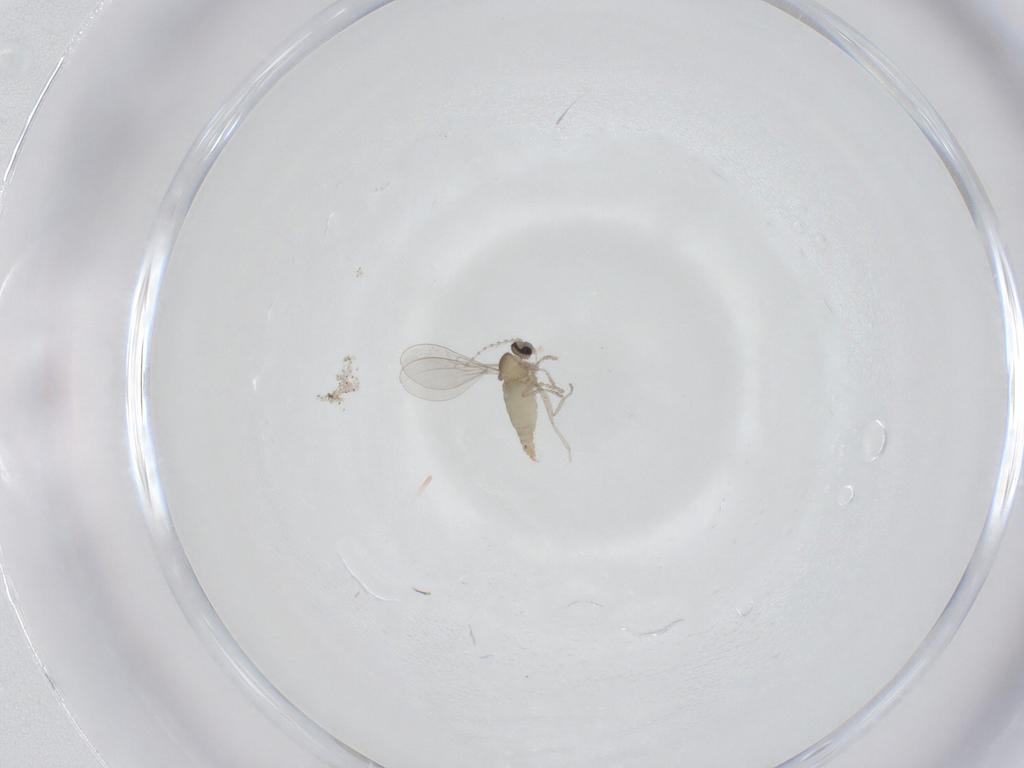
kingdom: Animalia
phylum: Arthropoda
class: Insecta
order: Diptera
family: Cecidomyiidae
